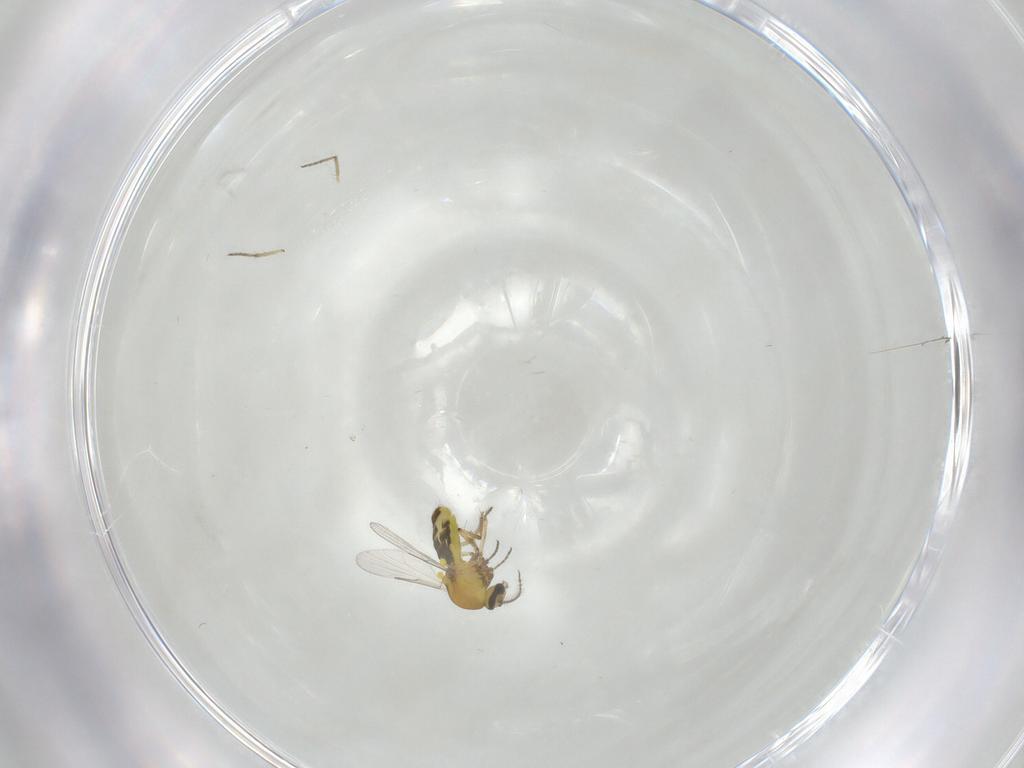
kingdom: Animalia
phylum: Arthropoda
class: Insecta
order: Diptera
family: Ceratopogonidae
